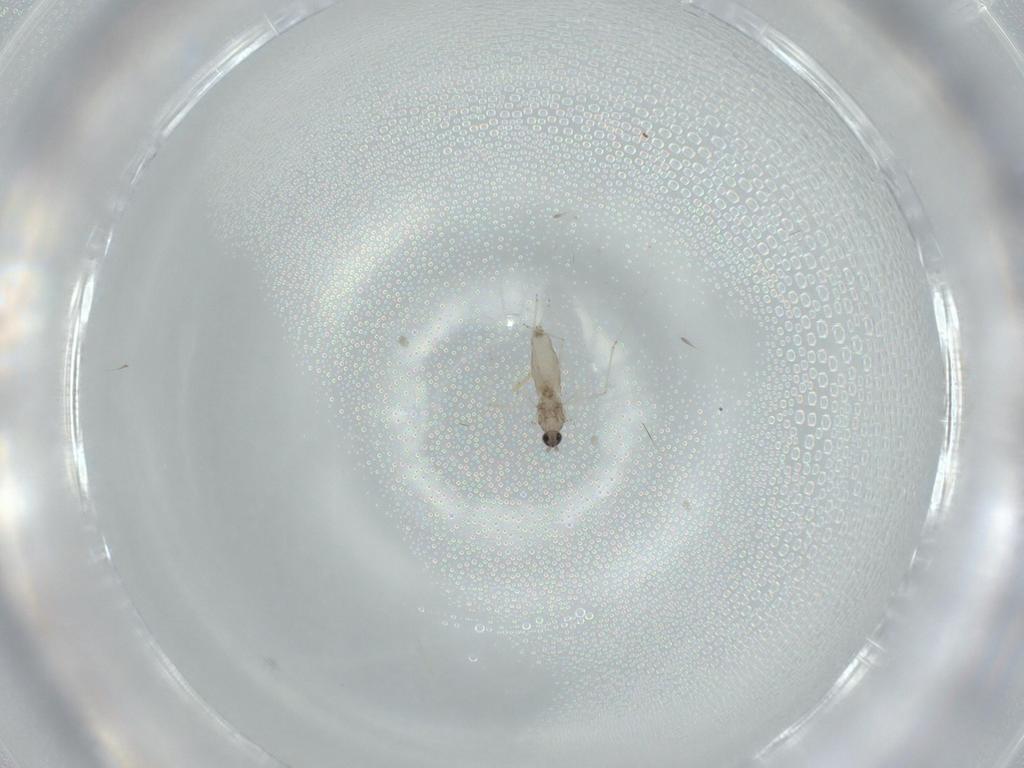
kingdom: Animalia
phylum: Arthropoda
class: Insecta
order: Diptera
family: Cecidomyiidae
